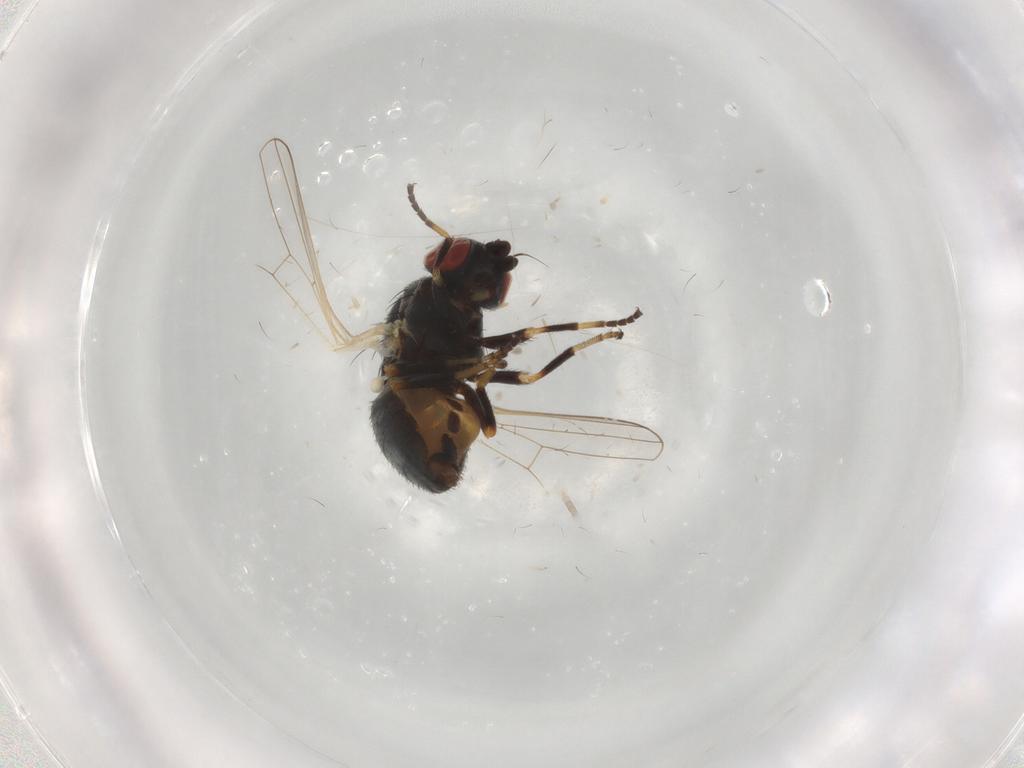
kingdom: Animalia
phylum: Arthropoda
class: Insecta
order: Diptera
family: Chamaemyiidae
